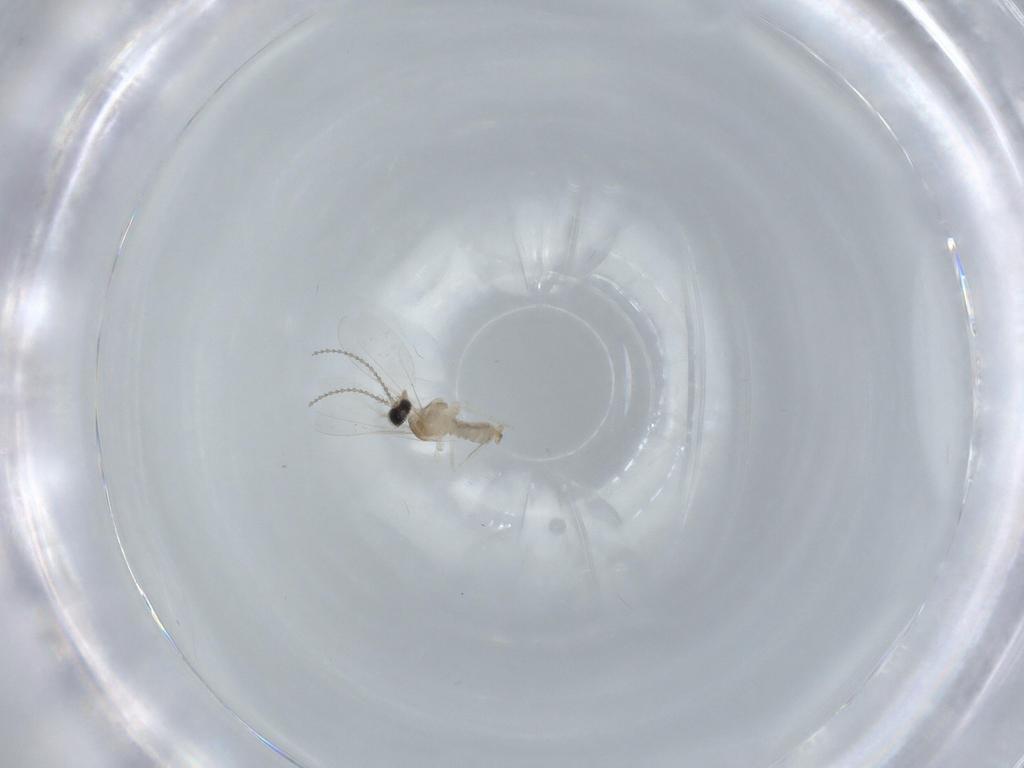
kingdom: Animalia
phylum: Arthropoda
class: Insecta
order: Diptera
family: Cecidomyiidae
